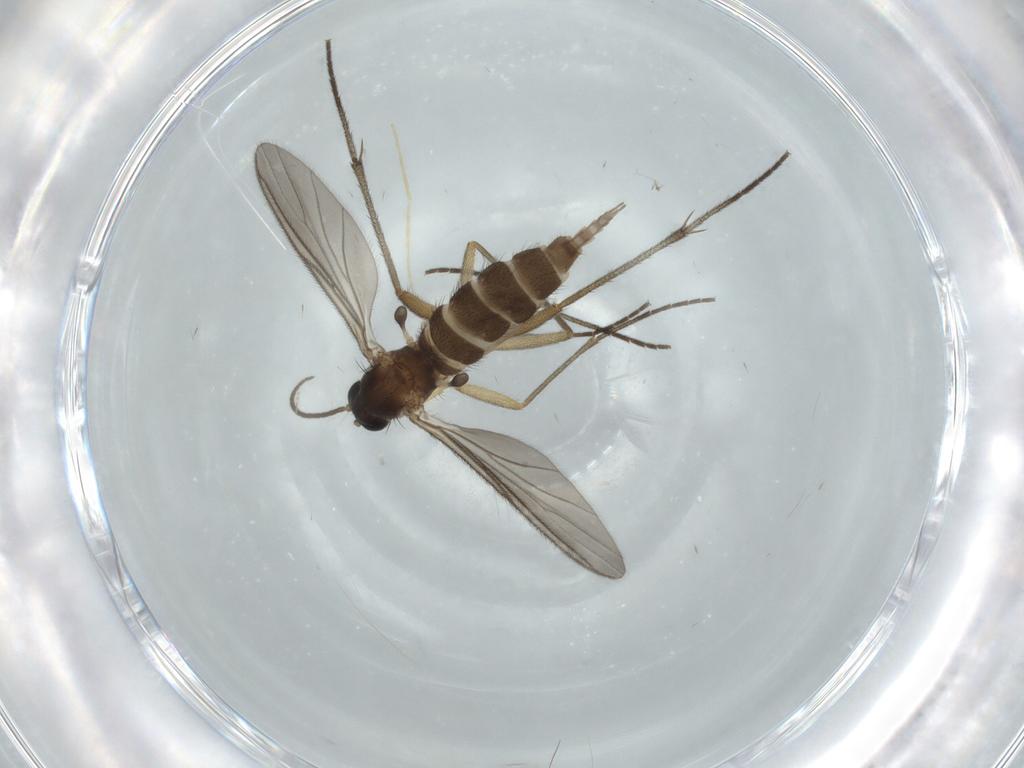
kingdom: Animalia
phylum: Arthropoda
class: Insecta
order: Diptera
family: Sciaridae
